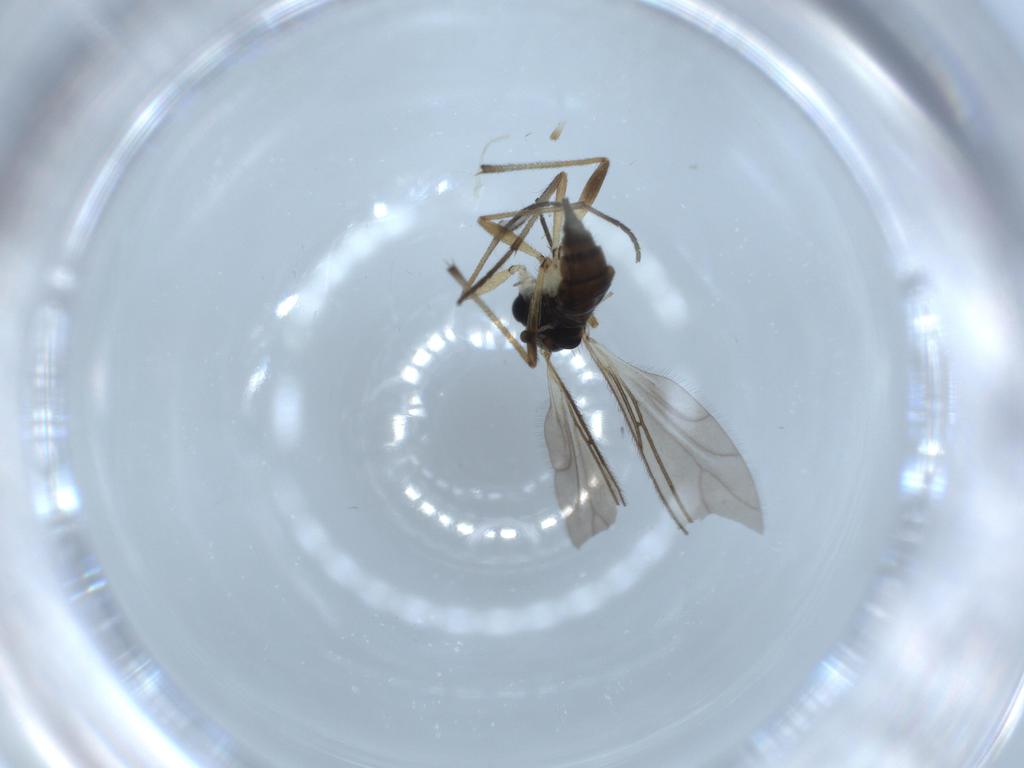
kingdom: Animalia
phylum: Arthropoda
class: Insecta
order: Diptera
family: Sciaridae
